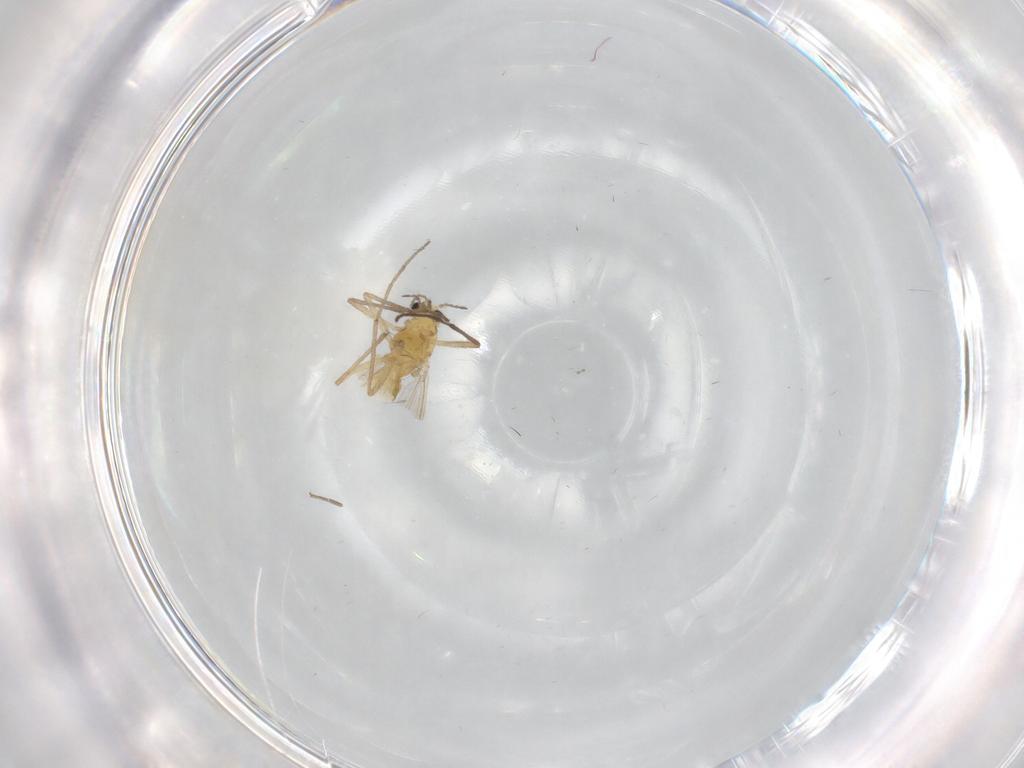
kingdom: Animalia
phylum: Arthropoda
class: Insecta
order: Diptera
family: Chironomidae
